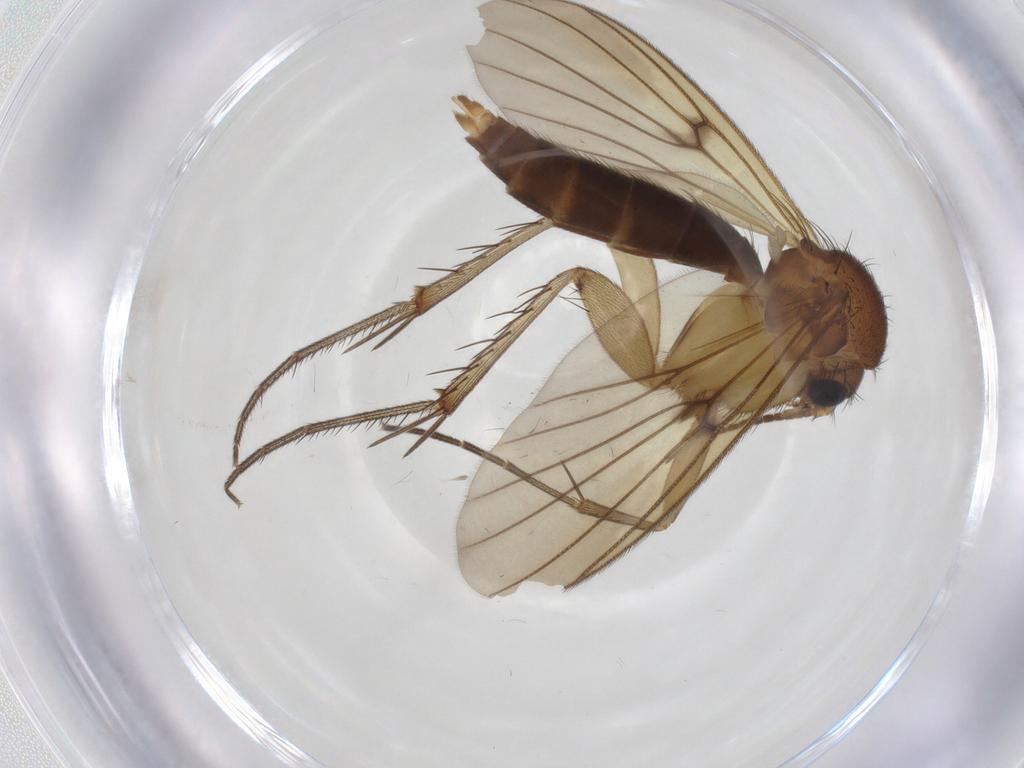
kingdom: Animalia
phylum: Arthropoda
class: Insecta
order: Diptera
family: Mycetophilidae
